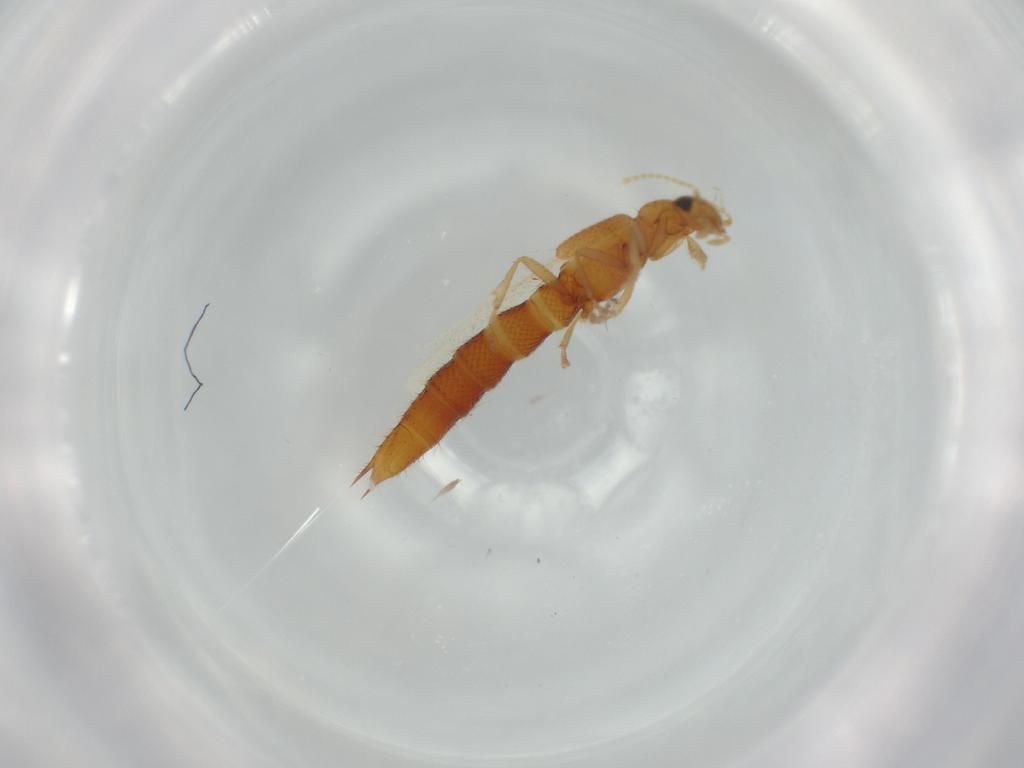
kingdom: Animalia
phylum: Arthropoda
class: Insecta
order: Coleoptera
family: Staphylinidae
